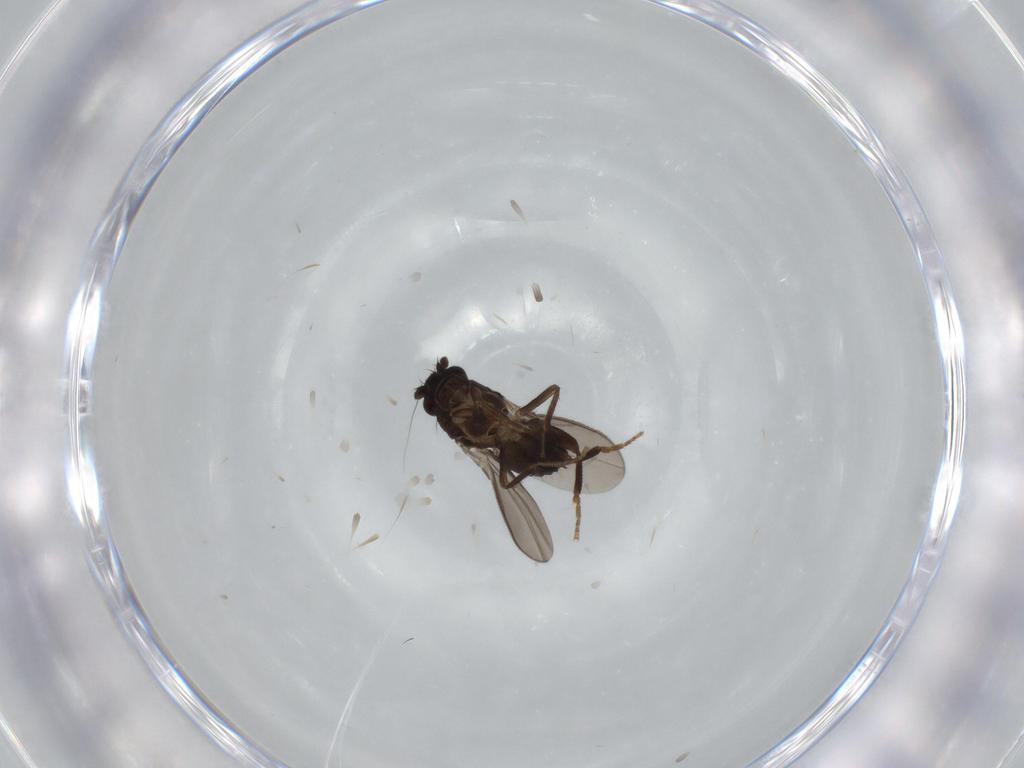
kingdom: Animalia
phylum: Arthropoda
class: Insecta
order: Diptera
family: Sphaeroceridae
